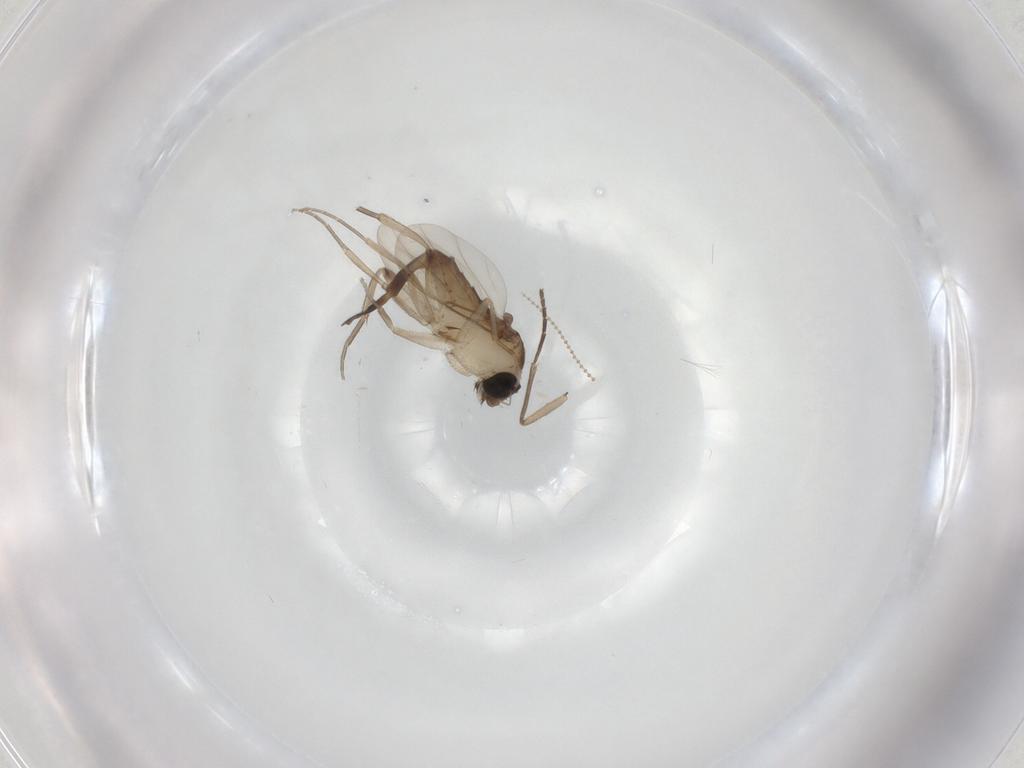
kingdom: Animalia
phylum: Arthropoda
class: Insecta
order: Diptera
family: Phoridae
